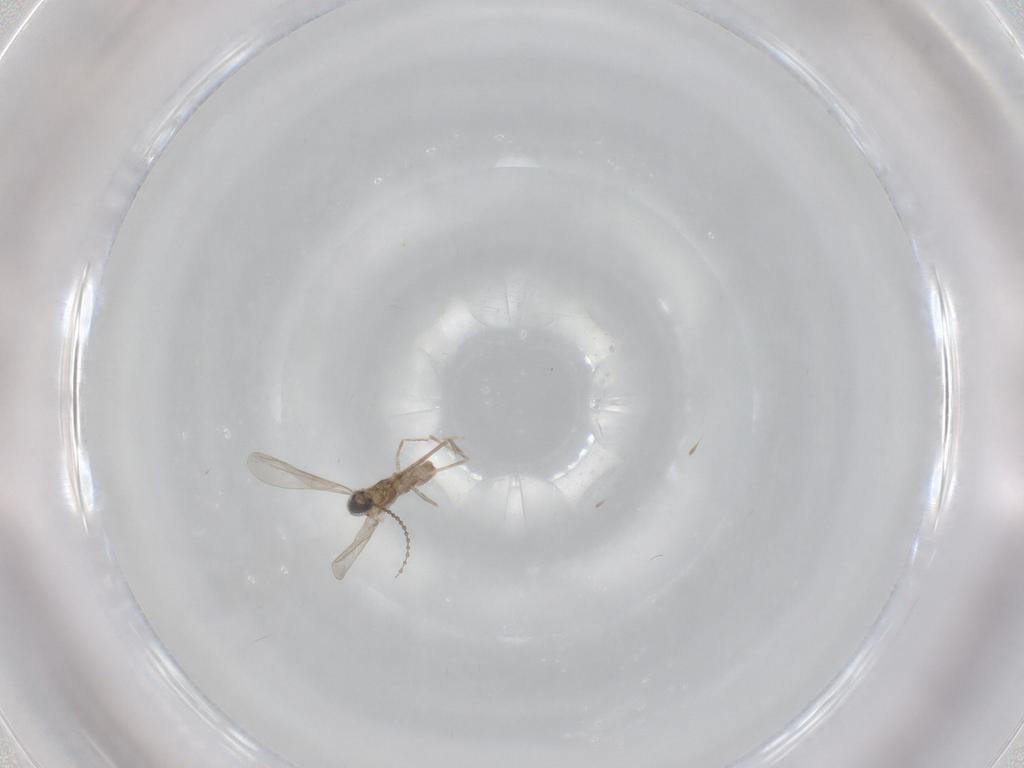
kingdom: Animalia
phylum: Arthropoda
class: Insecta
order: Diptera
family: Cecidomyiidae
